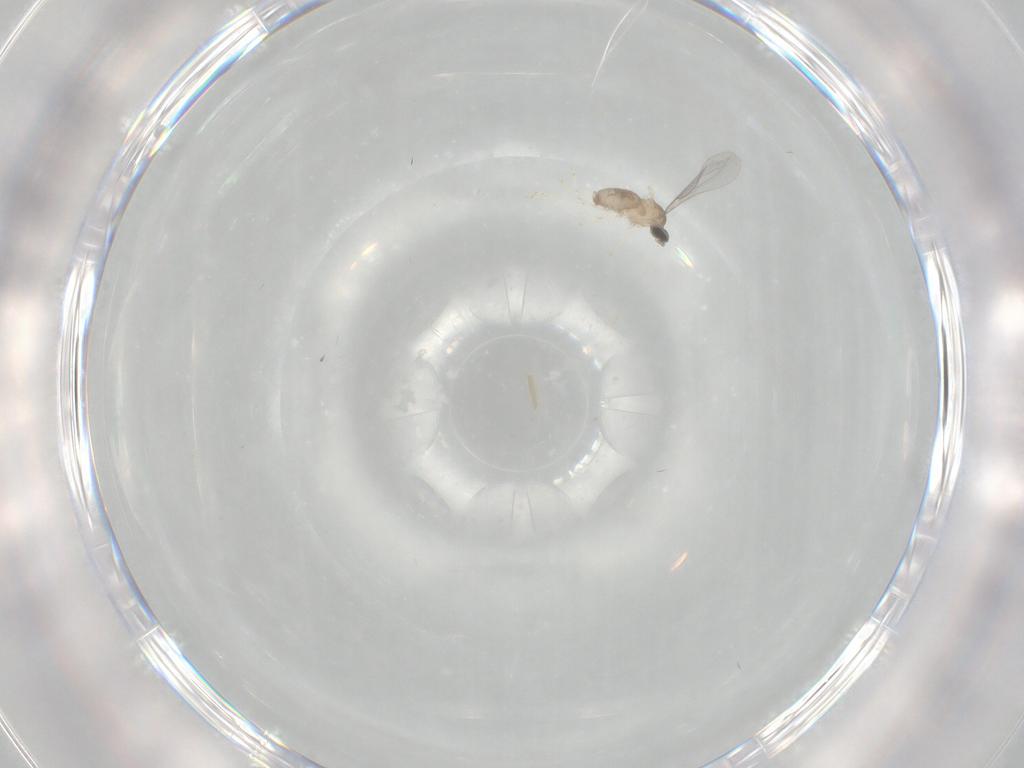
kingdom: Animalia
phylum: Arthropoda
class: Insecta
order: Diptera
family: Cecidomyiidae
